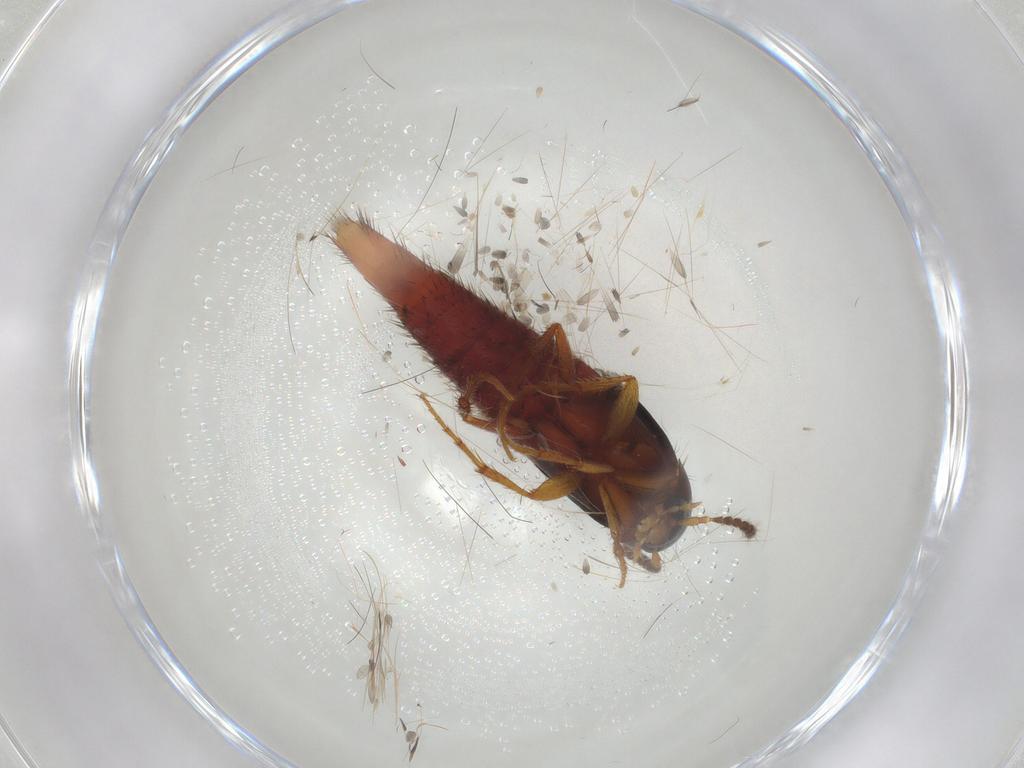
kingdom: Animalia
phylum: Arthropoda
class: Insecta
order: Coleoptera
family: Staphylinidae
